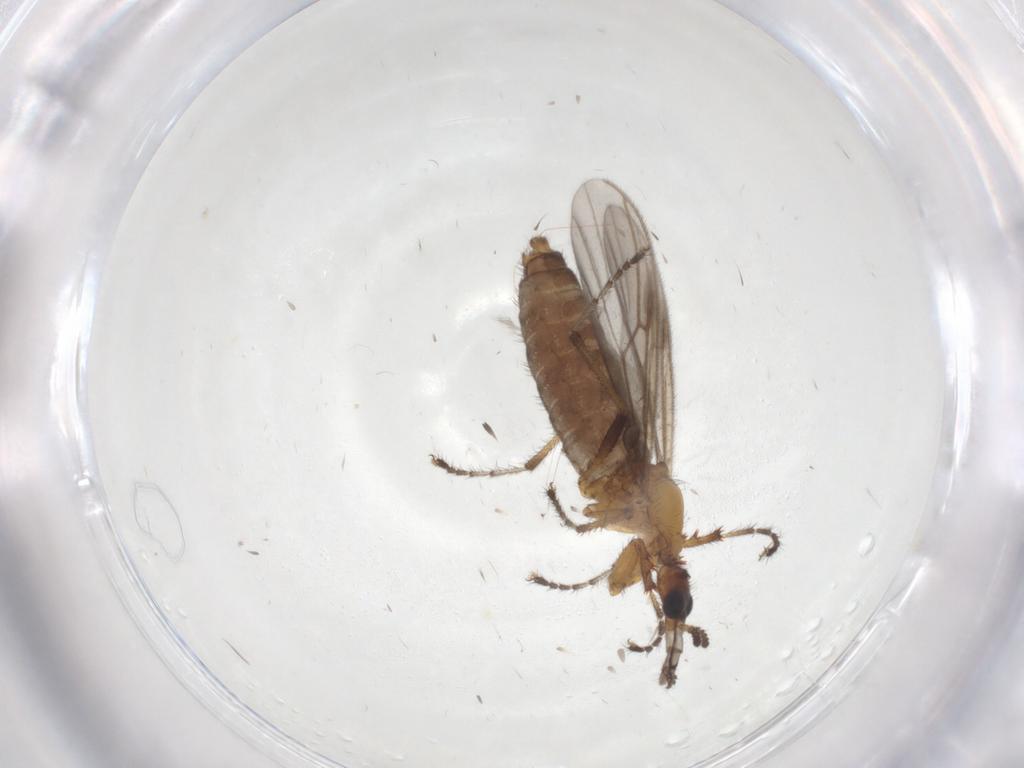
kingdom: Animalia
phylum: Arthropoda
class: Insecta
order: Diptera
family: Bibionidae
